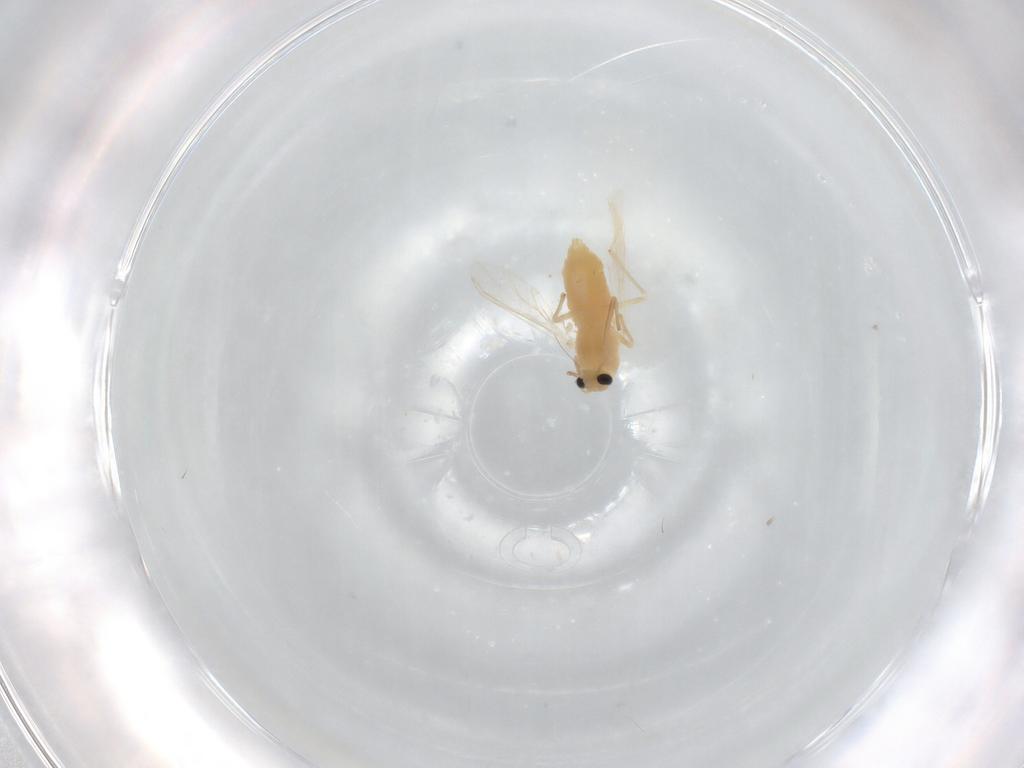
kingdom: Animalia
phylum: Arthropoda
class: Insecta
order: Diptera
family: Chironomidae
